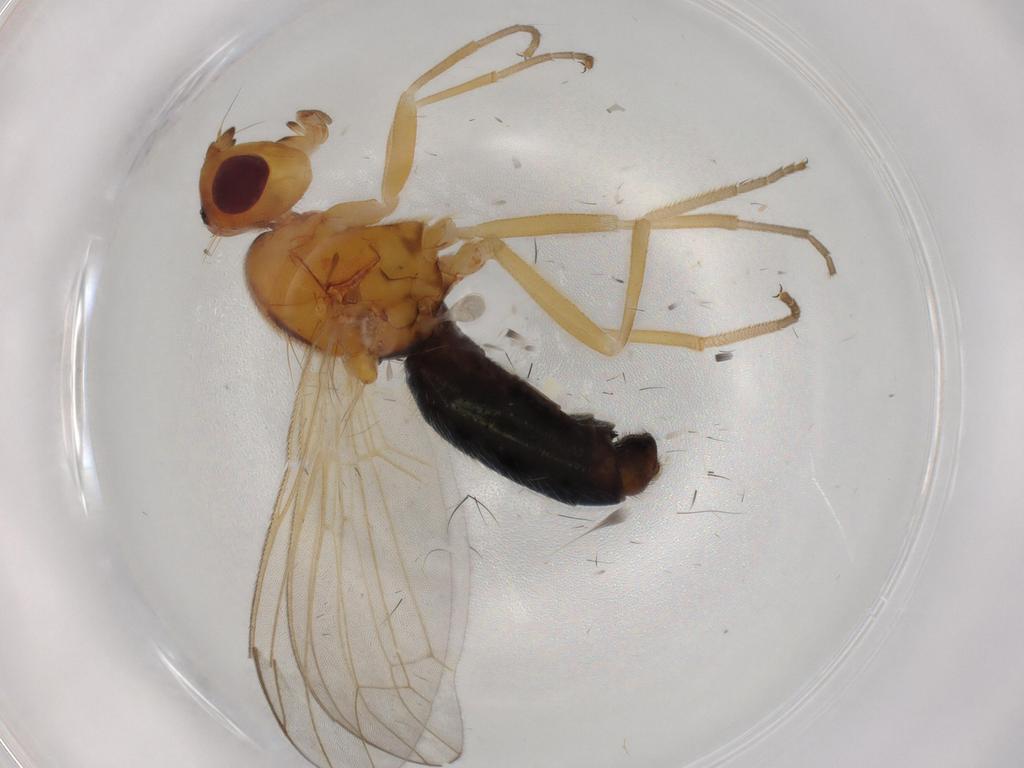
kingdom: Animalia
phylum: Arthropoda
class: Insecta
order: Diptera
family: Psilidae
